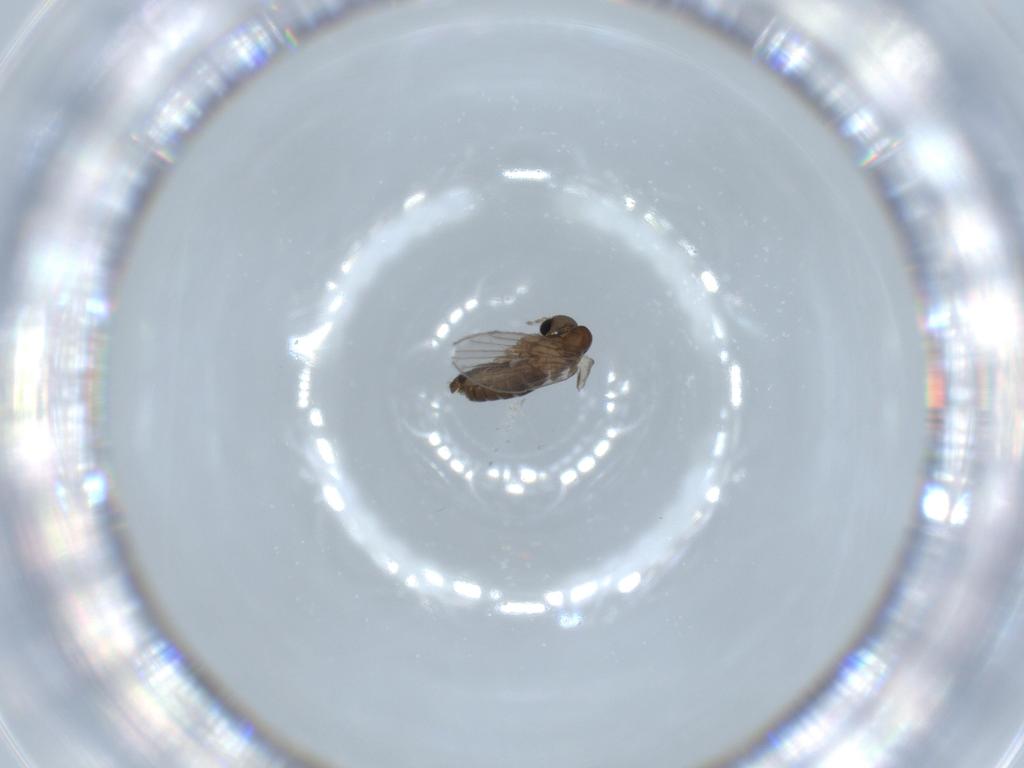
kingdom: Animalia
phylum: Arthropoda
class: Insecta
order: Diptera
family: Psychodidae
